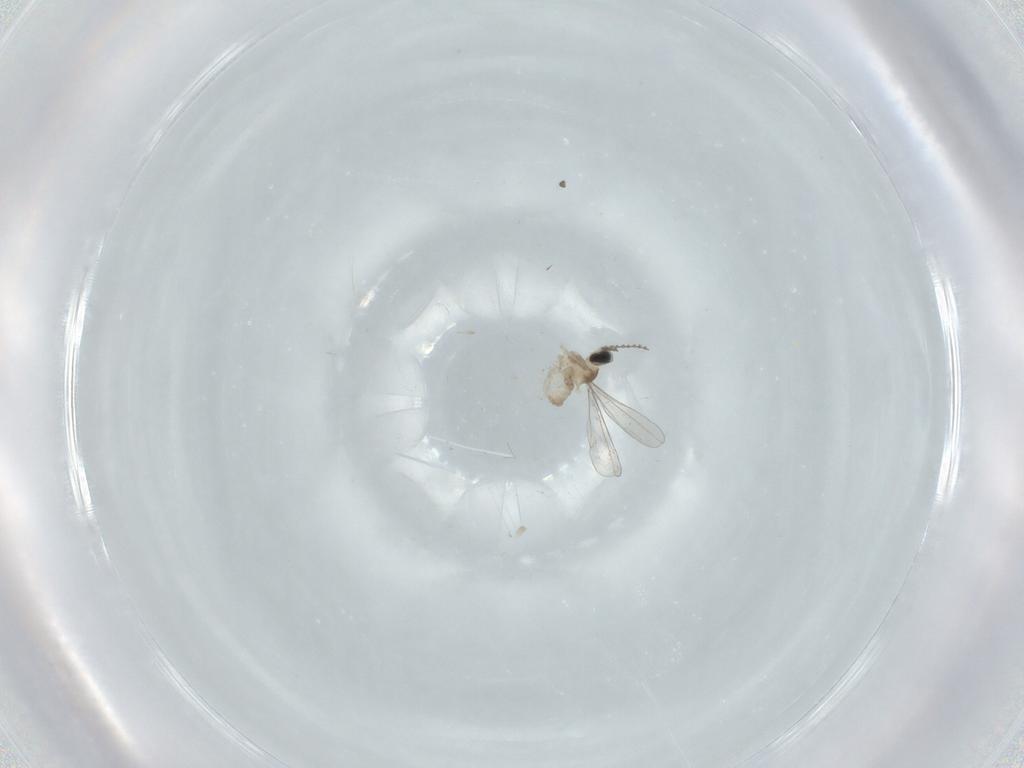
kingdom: Animalia
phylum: Arthropoda
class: Insecta
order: Diptera
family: Cecidomyiidae
